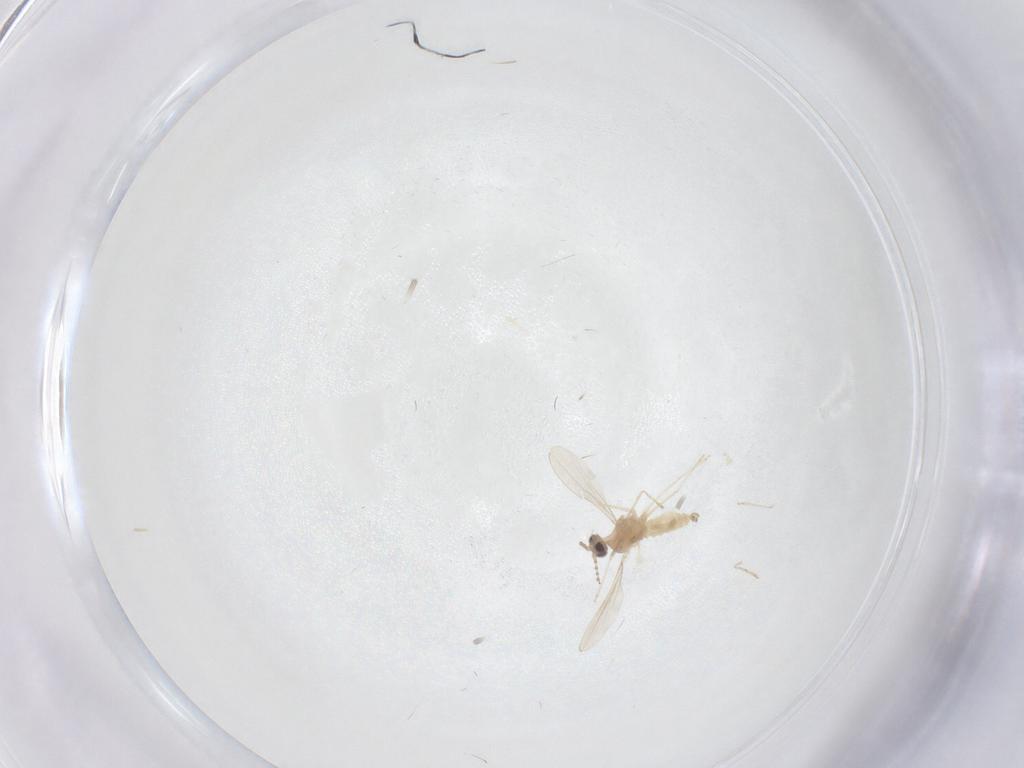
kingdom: Animalia
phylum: Arthropoda
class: Insecta
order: Diptera
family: Cecidomyiidae
